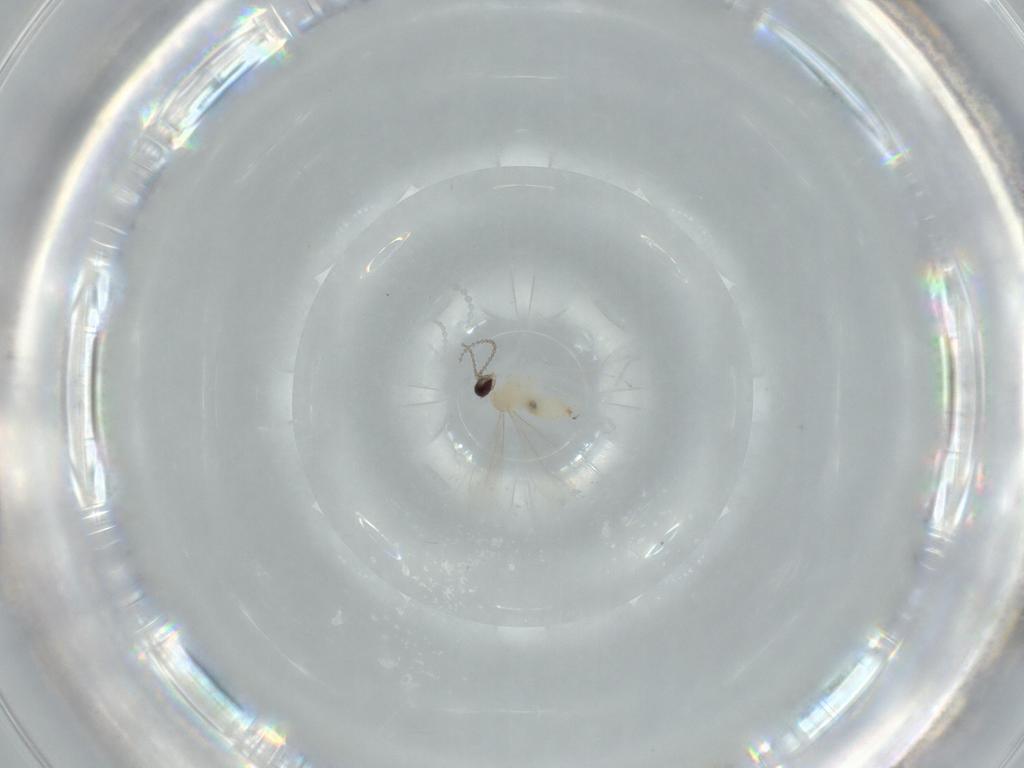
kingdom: Animalia
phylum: Arthropoda
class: Insecta
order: Diptera
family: Cecidomyiidae
